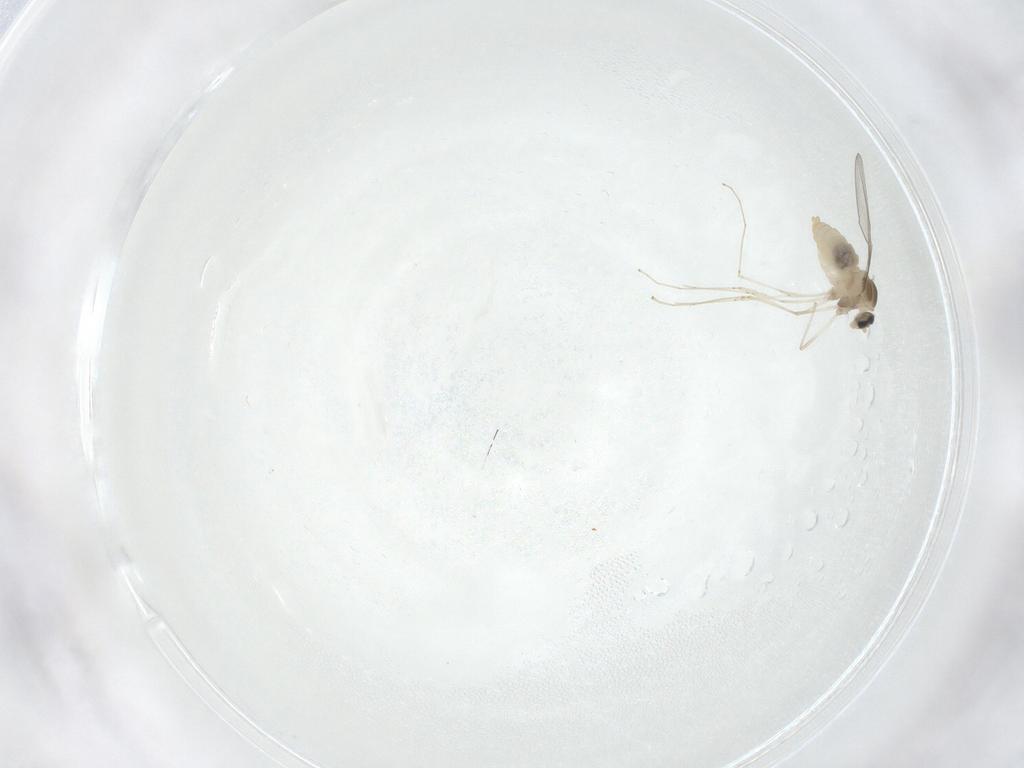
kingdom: Animalia
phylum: Arthropoda
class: Insecta
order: Diptera
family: Cecidomyiidae
